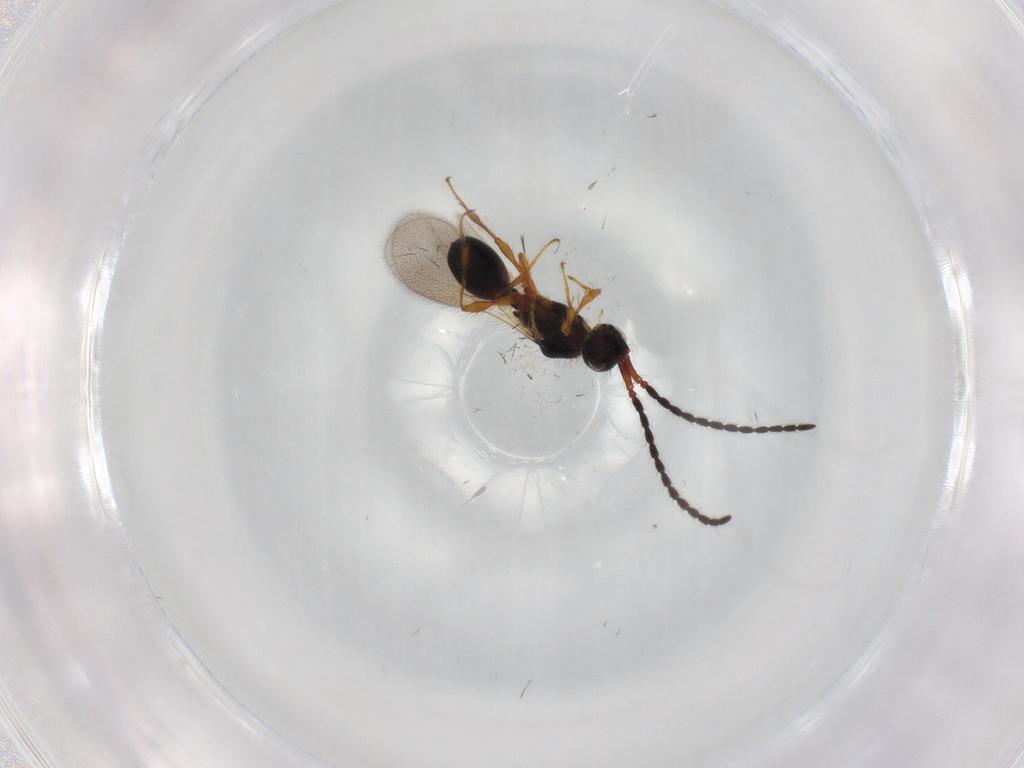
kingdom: Animalia
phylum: Arthropoda
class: Insecta
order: Hymenoptera
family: Diapriidae
